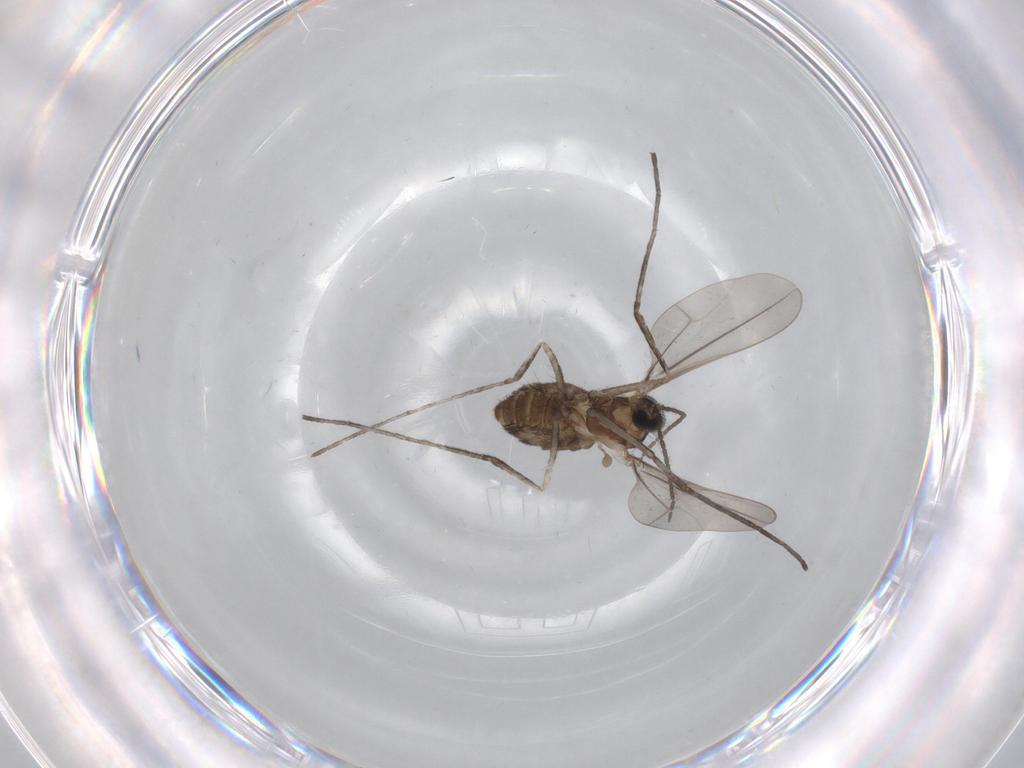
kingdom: Animalia
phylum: Arthropoda
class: Insecta
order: Diptera
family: Cecidomyiidae
